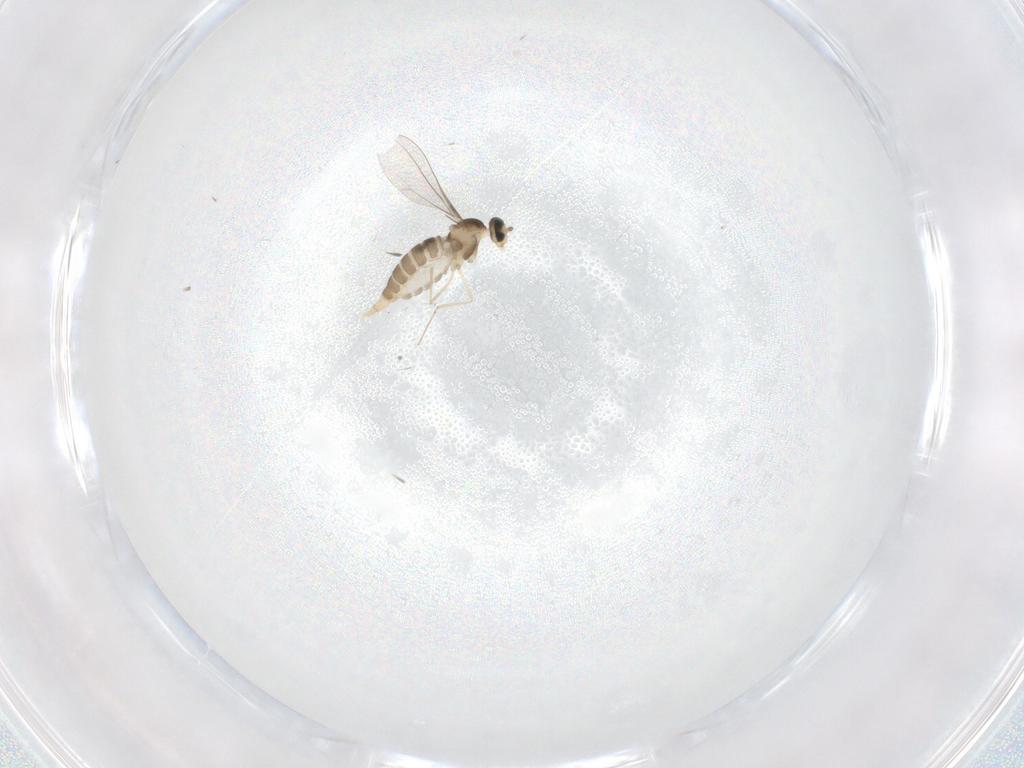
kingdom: Animalia
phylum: Arthropoda
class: Insecta
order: Diptera
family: Cecidomyiidae
